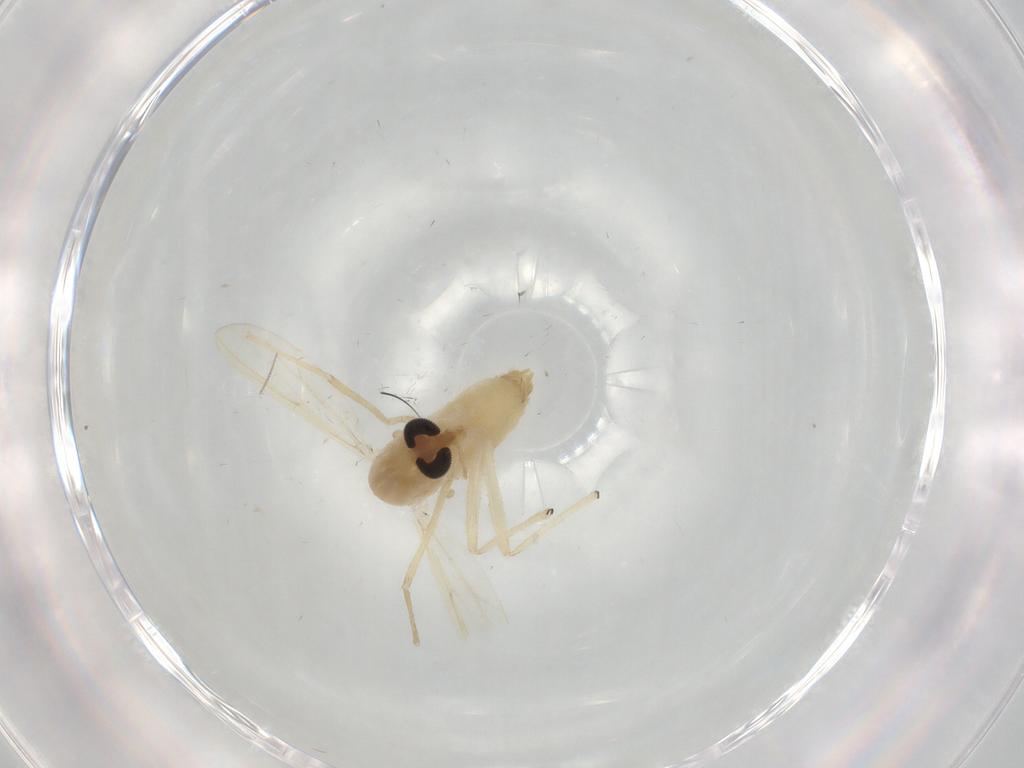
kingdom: Animalia
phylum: Arthropoda
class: Insecta
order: Diptera
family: Chironomidae
